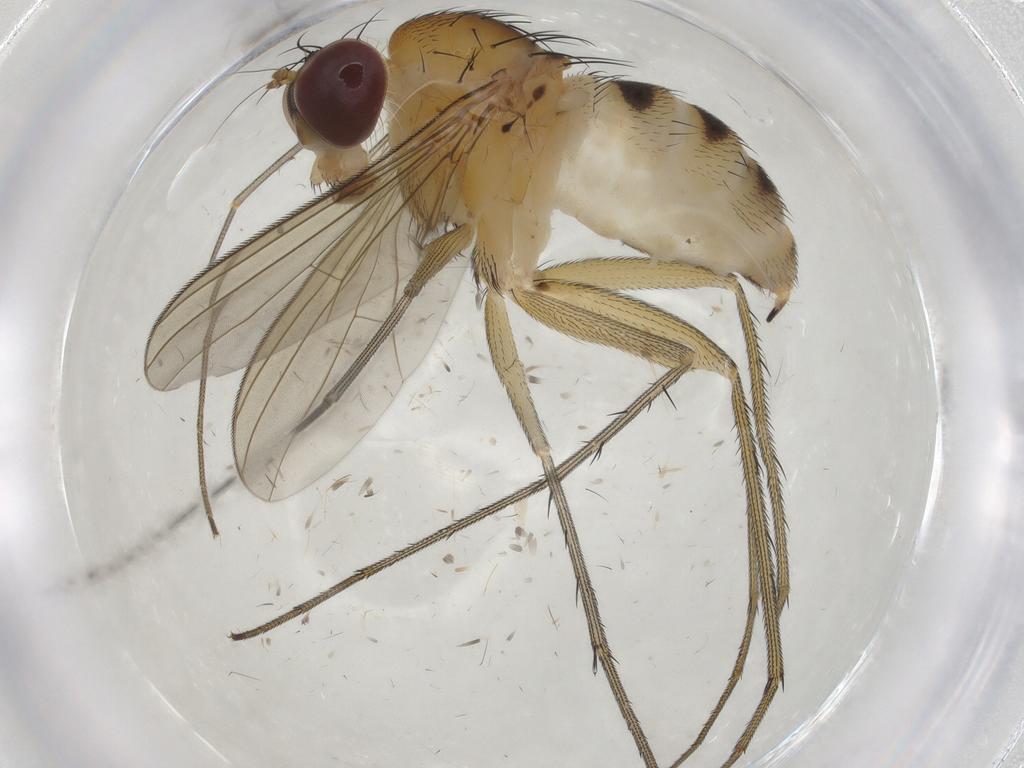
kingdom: Animalia
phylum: Arthropoda
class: Insecta
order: Diptera
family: Dolichopodidae
